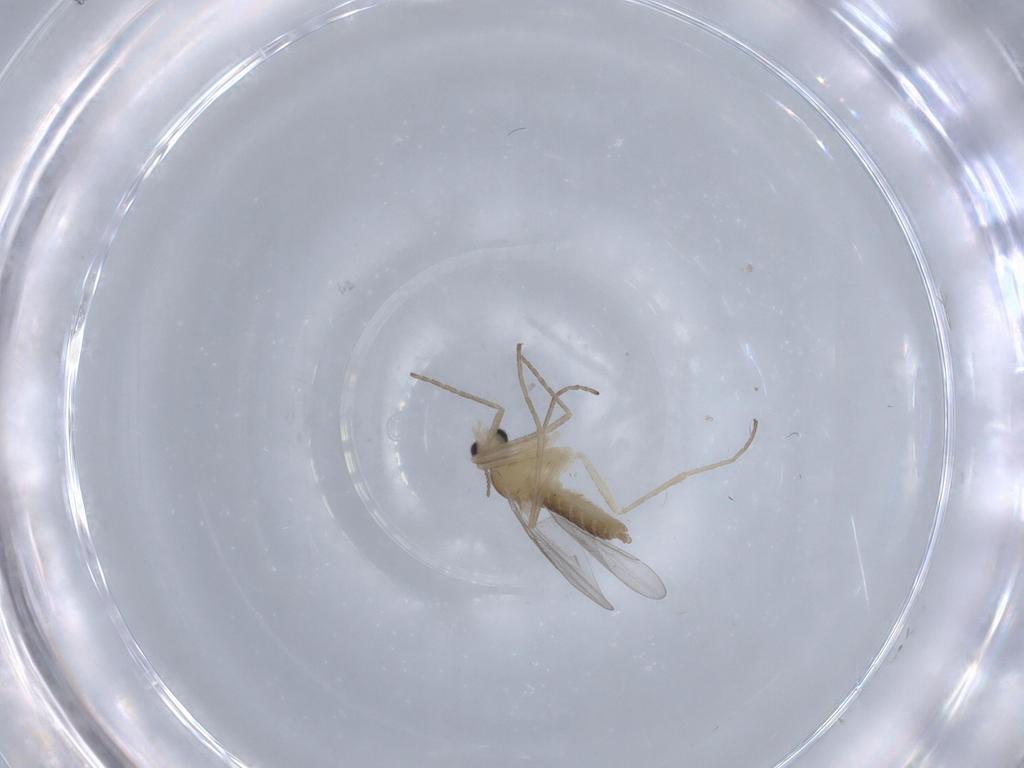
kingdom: Animalia
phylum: Arthropoda
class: Insecta
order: Diptera
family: Cecidomyiidae
